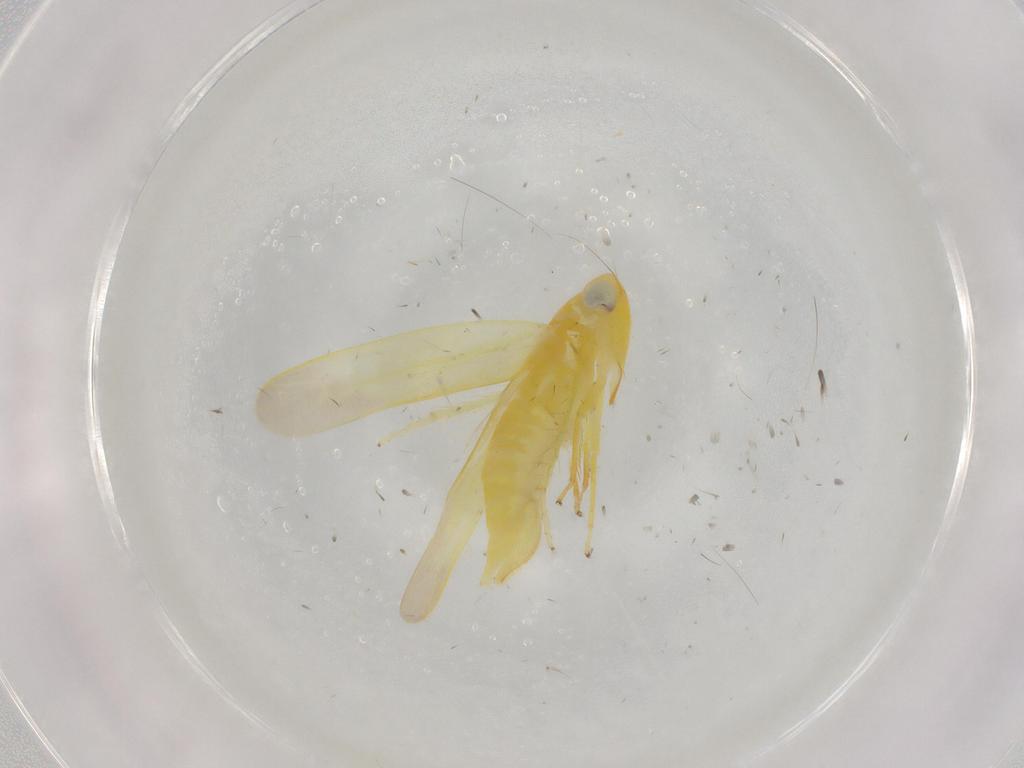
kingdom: Animalia
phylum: Arthropoda
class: Insecta
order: Hemiptera
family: Cicadellidae
